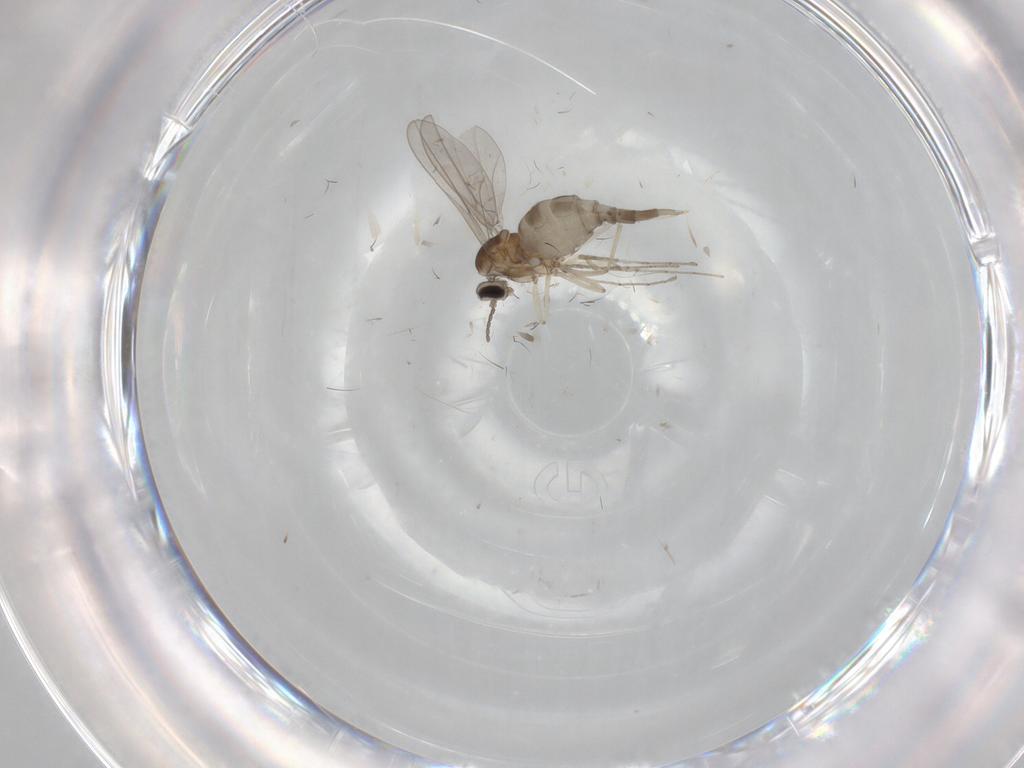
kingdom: Animalia
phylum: Arthropoda
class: Insecta
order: Diptera
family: Cecidomyiidae
